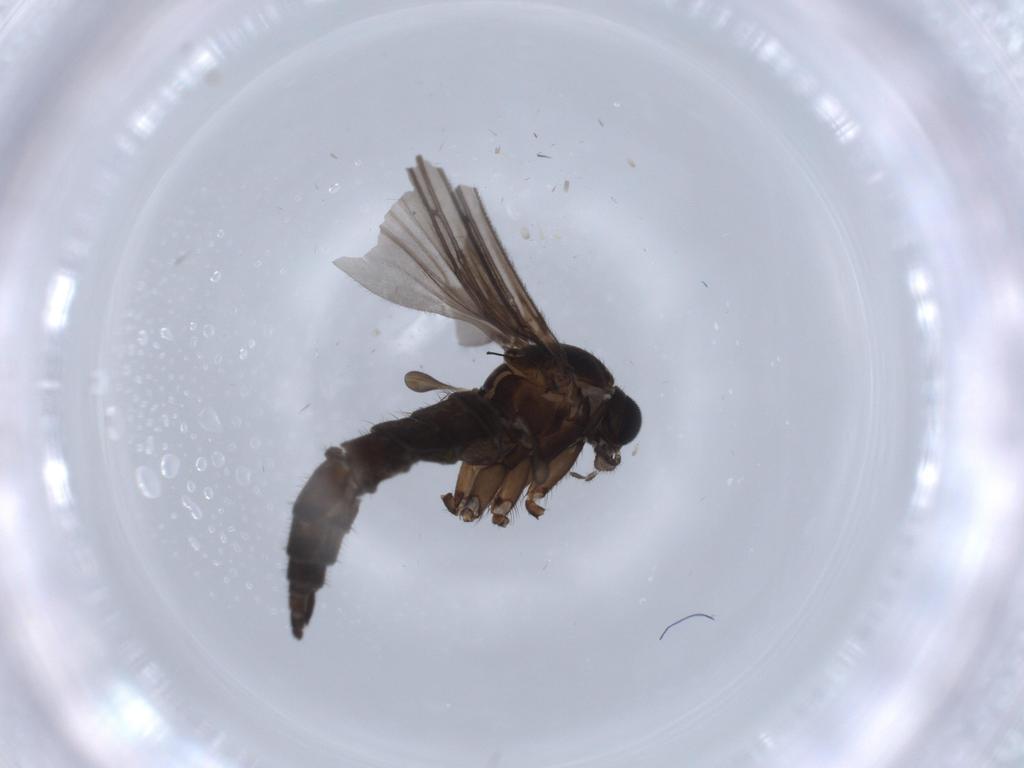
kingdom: Animalia
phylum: Arthropoda
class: Insecta
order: Diptera
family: Sciaridae
